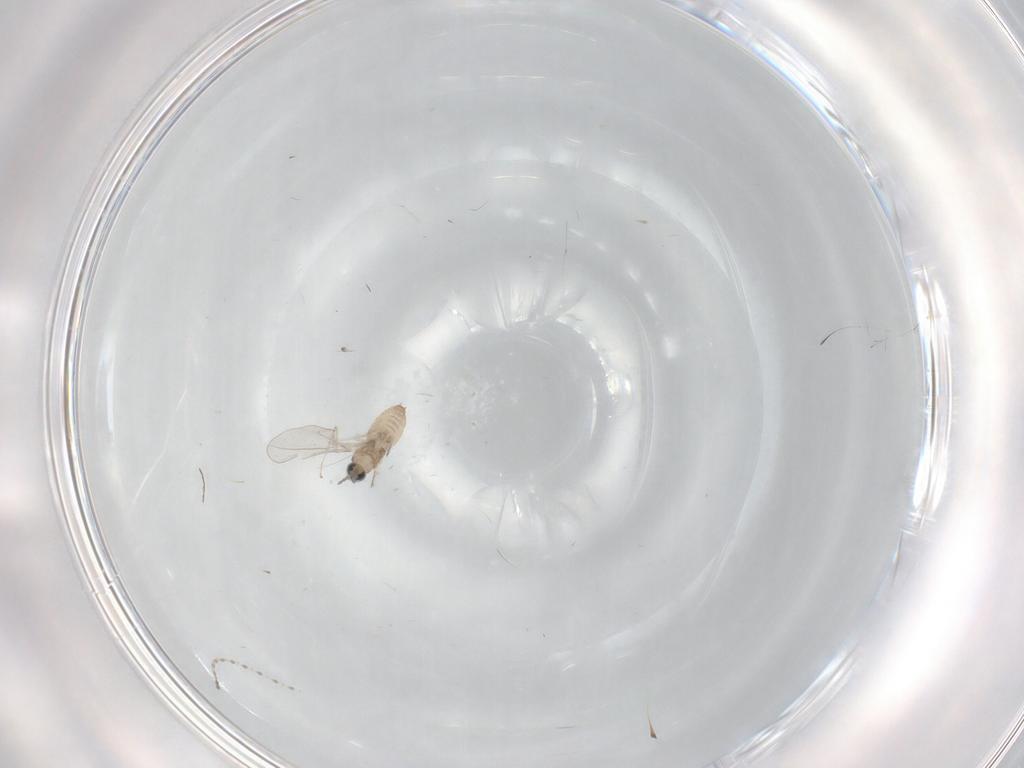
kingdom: Animalia
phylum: Arthropoda
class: Insecta
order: Diptera
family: Cecidomyiidae
